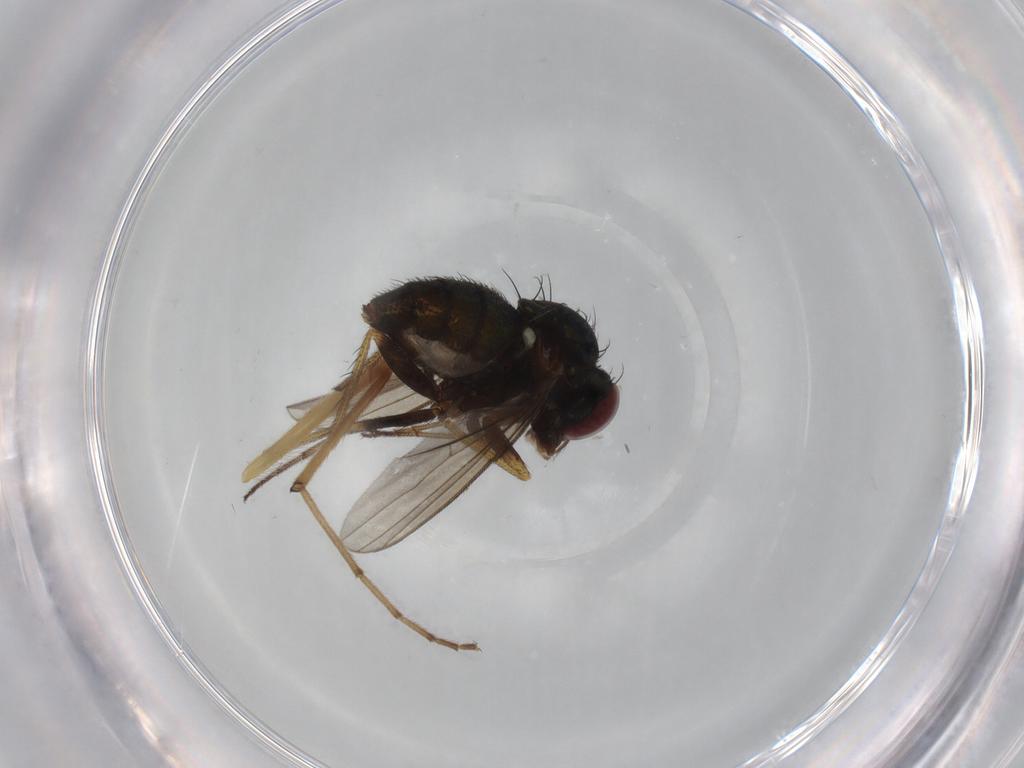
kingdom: Animalia
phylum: Arthropoda
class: Insecta
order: Diptera
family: Dolichopodidae
